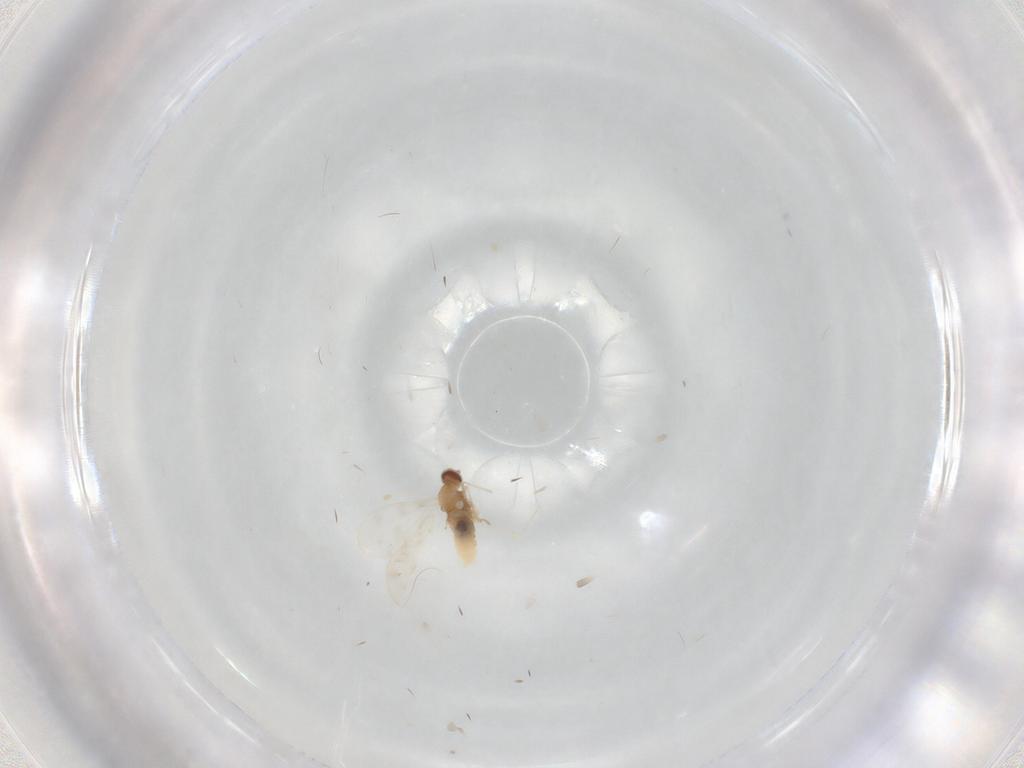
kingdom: Animalia
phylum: Arthropoda
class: Insecta
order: Diptera
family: Cecidomyiidae
